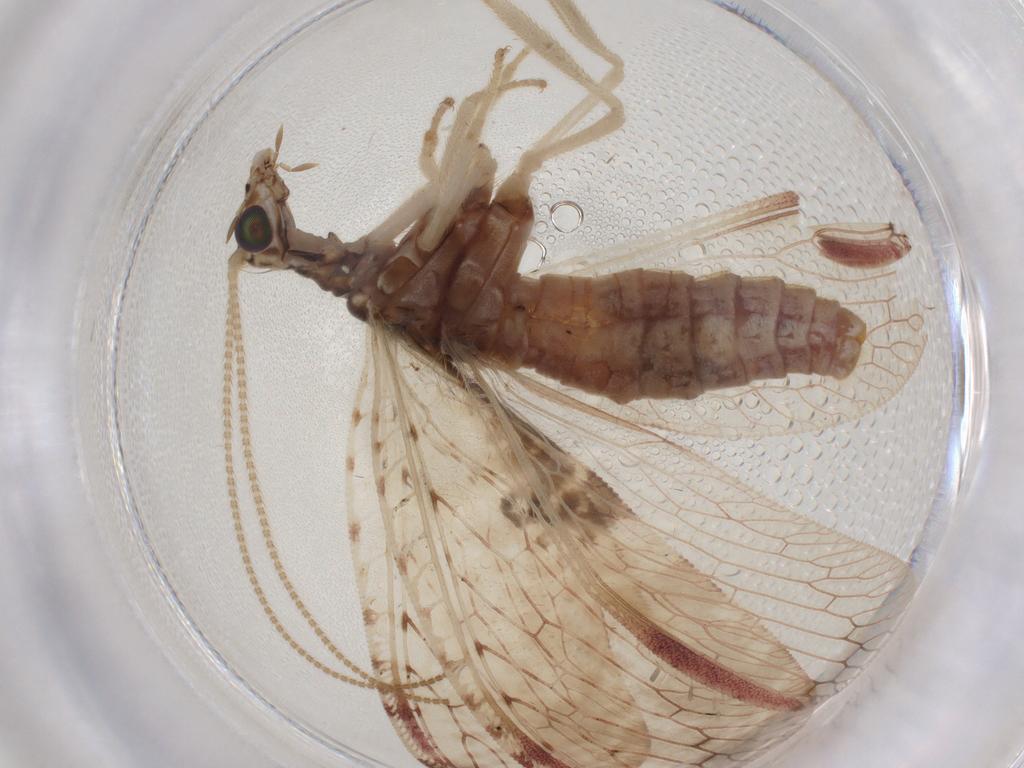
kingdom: Animalia
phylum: Arthropoda
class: Insecta
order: Neuroptera
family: Hemerobiidae
